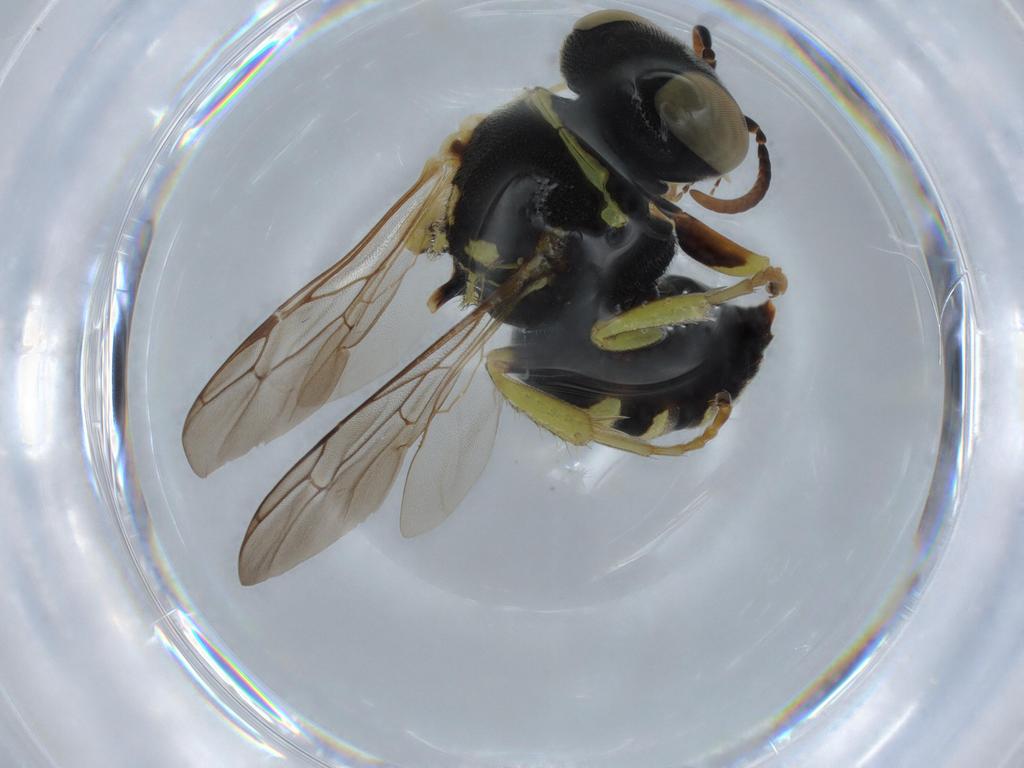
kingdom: Animalia
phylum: Arthropoda
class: Insecta
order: Hymenoptera
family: Crabronidae
